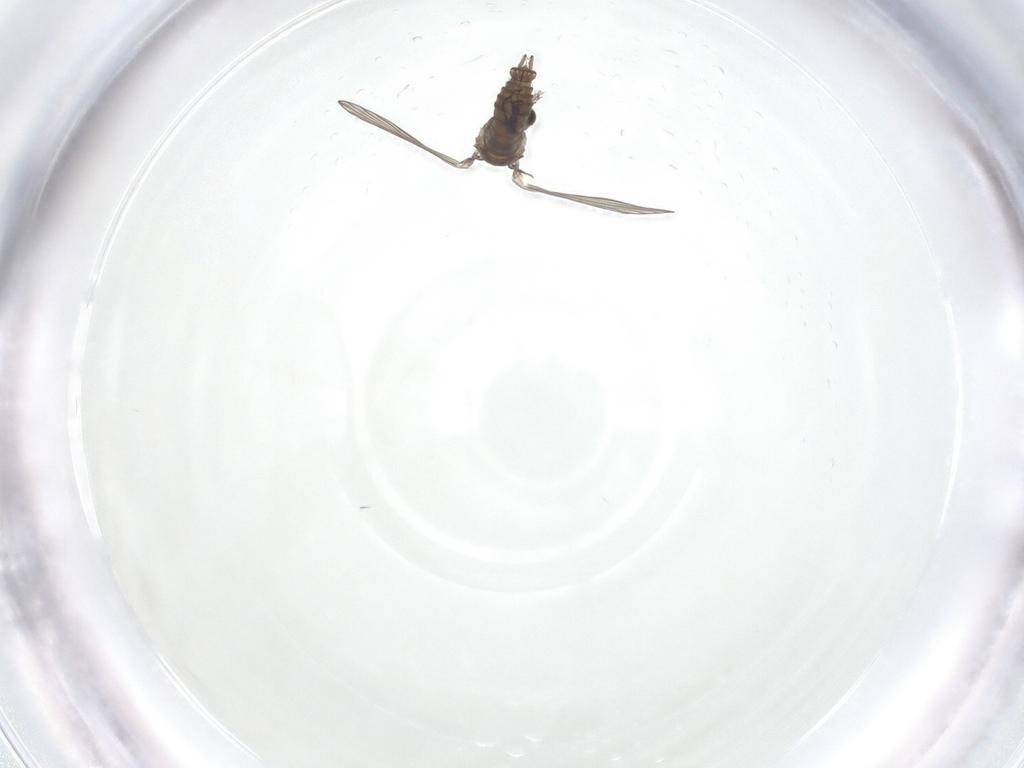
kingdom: Animalia
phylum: Arthropoda
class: Insecta
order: Diptera
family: Psychodidae
